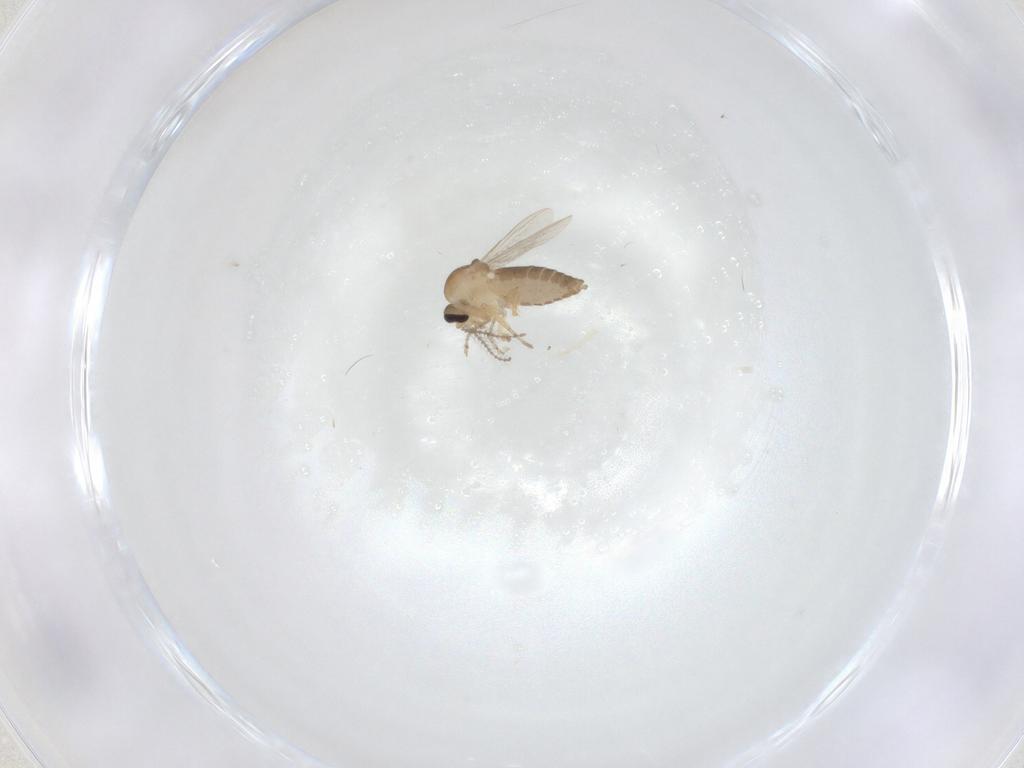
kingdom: Animalia
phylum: Arthropoda
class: Insecta
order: Diptera
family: Ceratopogonidae
